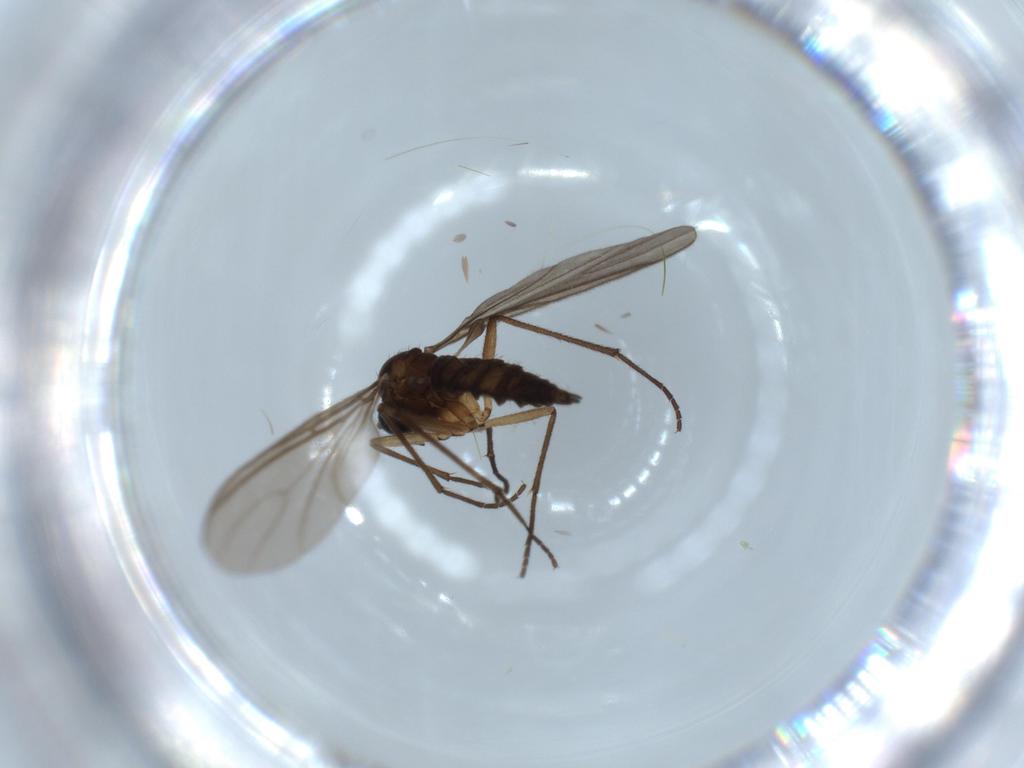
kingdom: Animalia
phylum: Arthropoda
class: Insecta
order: Diptera
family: Sciaridae
